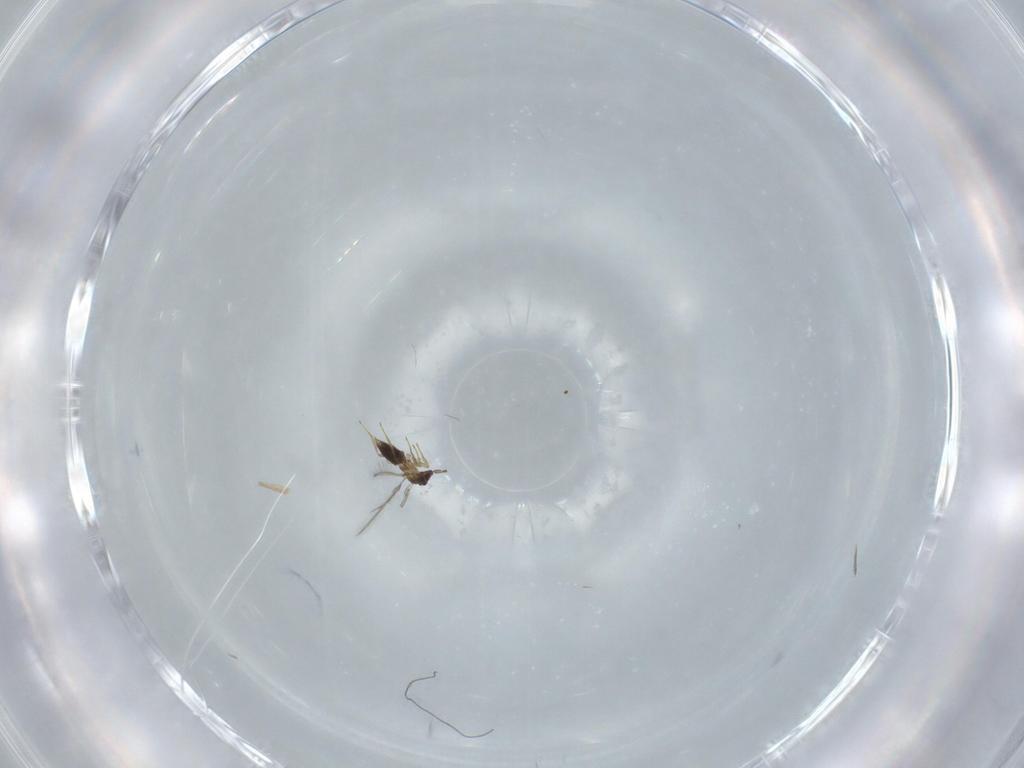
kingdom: Animalia
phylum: Arthropoda
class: Insecta
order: Hymenoptera
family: Mymaridae
